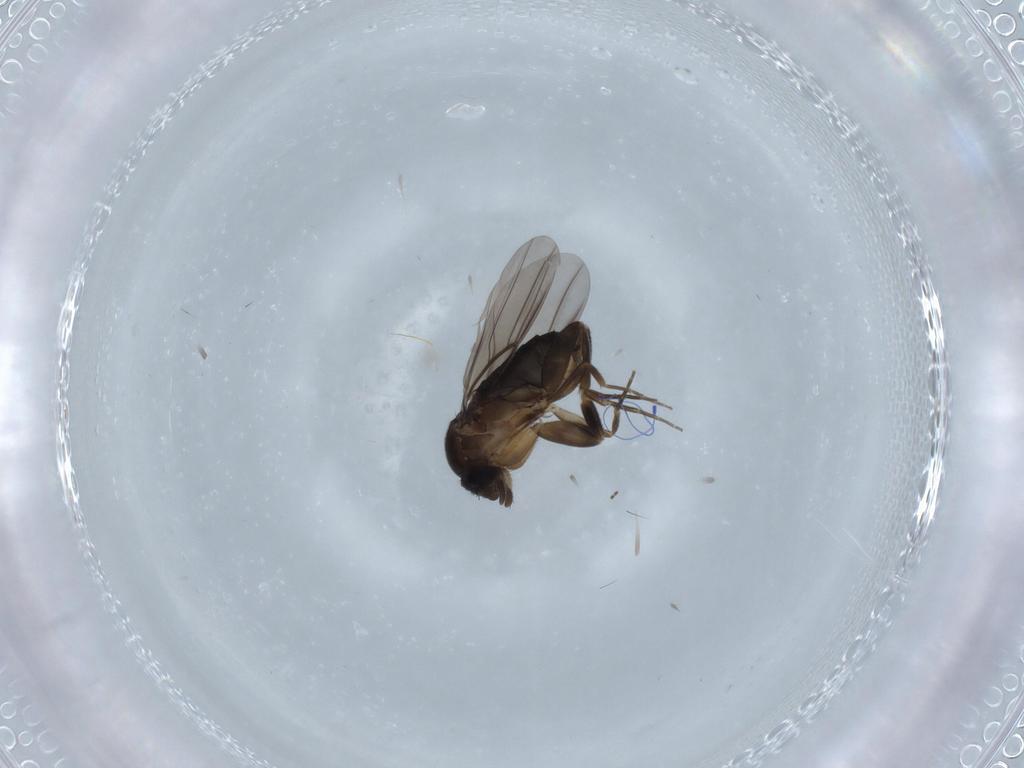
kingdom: Animalia
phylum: Arthropoda
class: Insecta
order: Diptera
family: Phoridae
